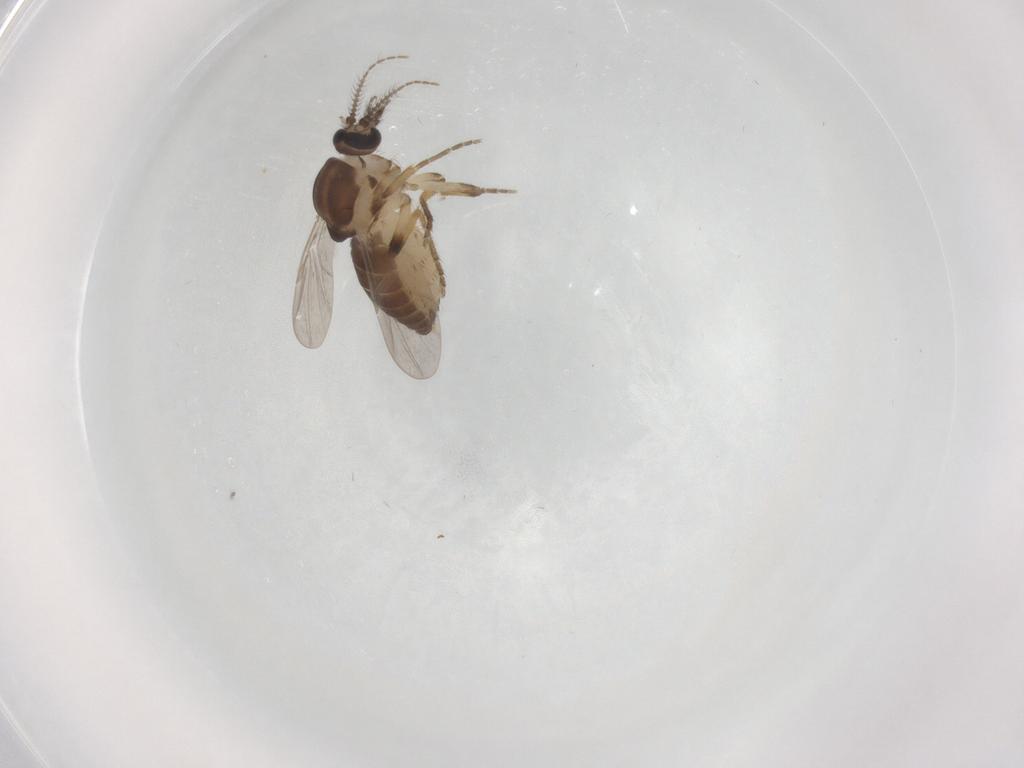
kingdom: Animalia
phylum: Arthropoda
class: Insecta
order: Diptera
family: Ceratopogonidae
